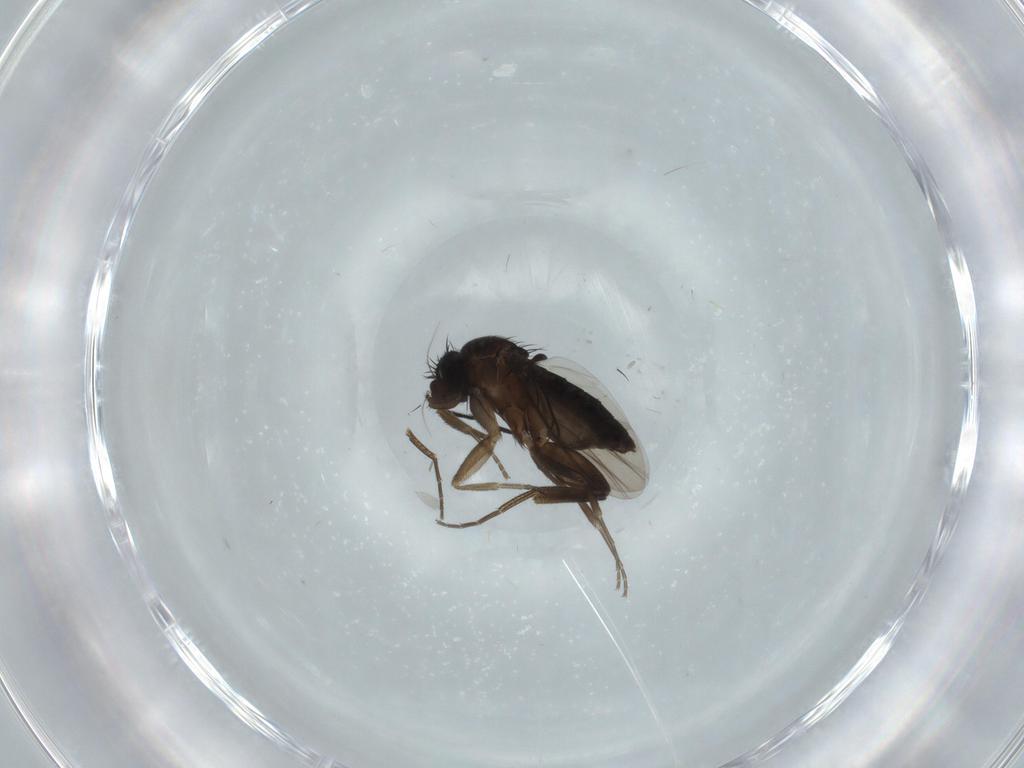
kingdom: Animalia
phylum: Arthropoda
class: Insecta
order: Diptera
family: Phoridae
